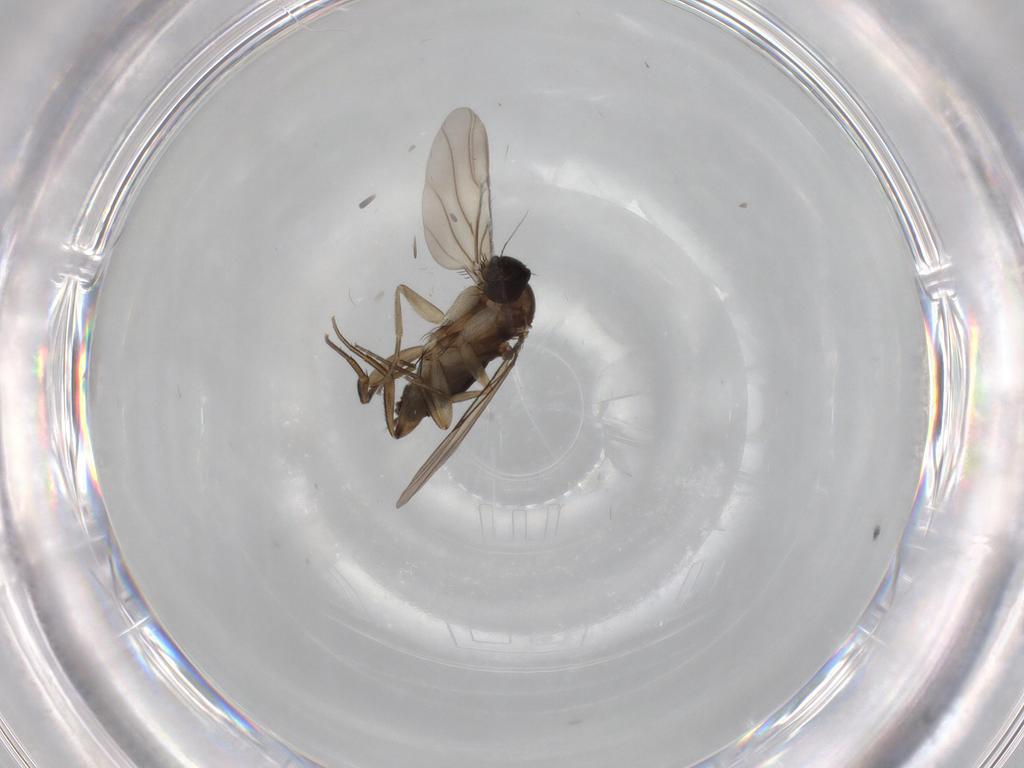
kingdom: Animalia
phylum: Arthropoda
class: Insecta
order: Diptera
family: Phoridae
